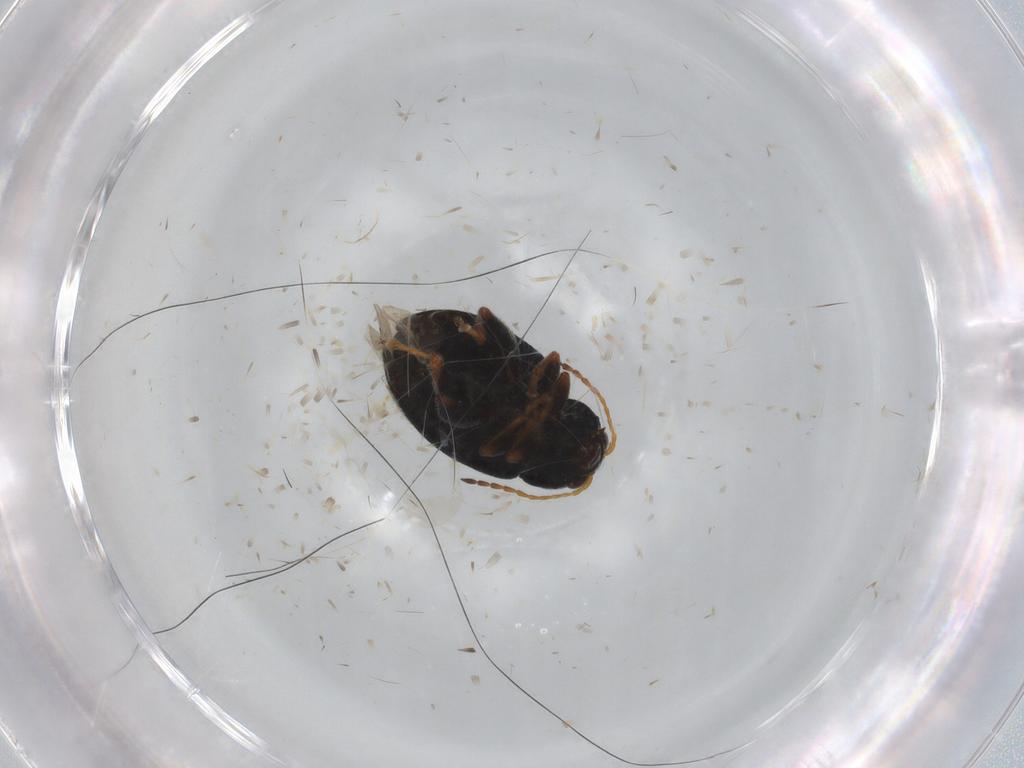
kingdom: Animalia
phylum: Arthropoda
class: Insecta
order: Coleoptera
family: Chrysomelidae
